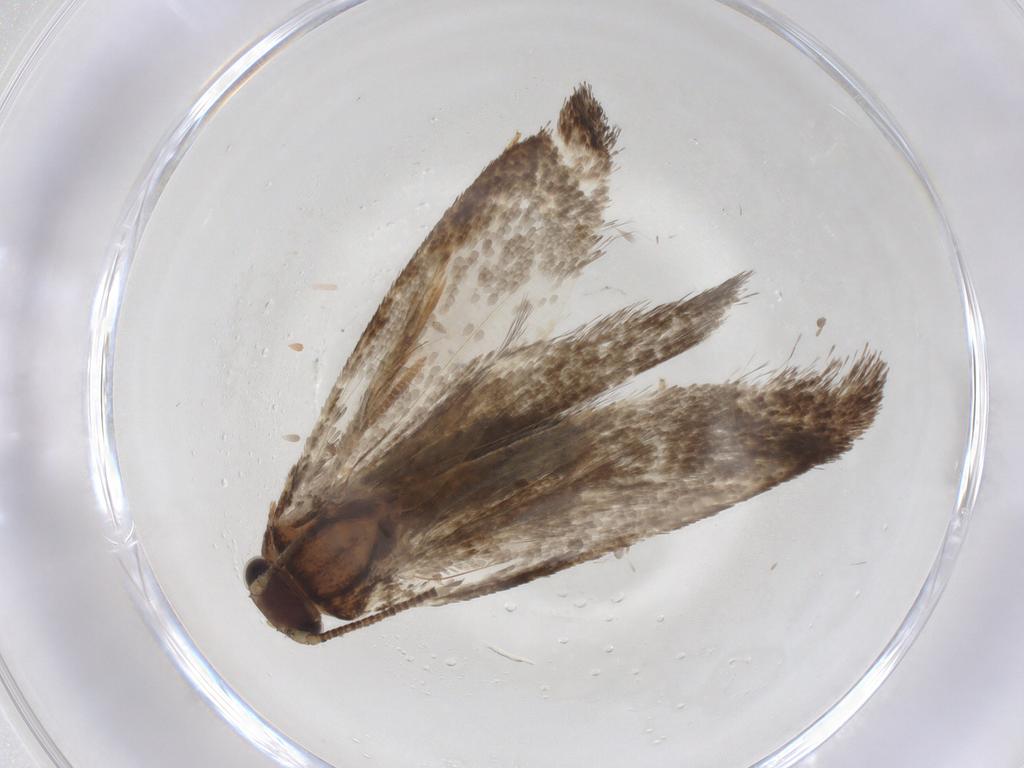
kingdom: Animalia
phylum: Arthropoda
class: Insecta
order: Lepidoptera
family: Crambidae
